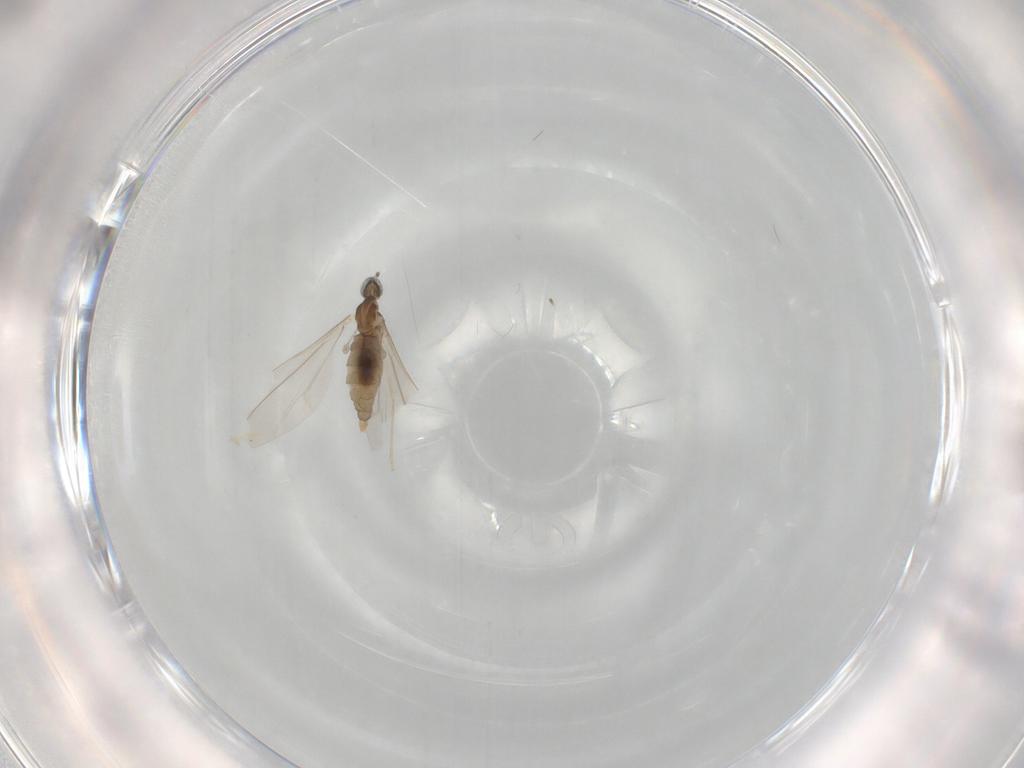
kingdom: Animalia
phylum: Arthropoda
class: Insecta
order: Diptera
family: Cecidomyiidae
